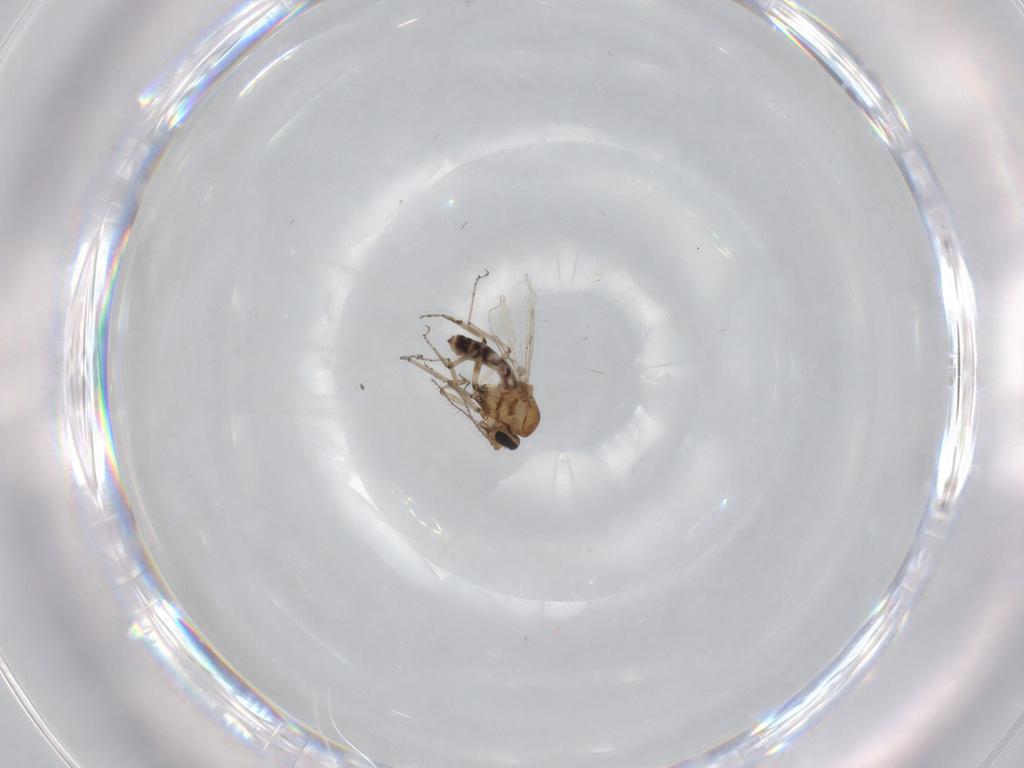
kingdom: Animalia
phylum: Arthropoda
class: Insecta
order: Diptera
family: Ceratopogonidae
